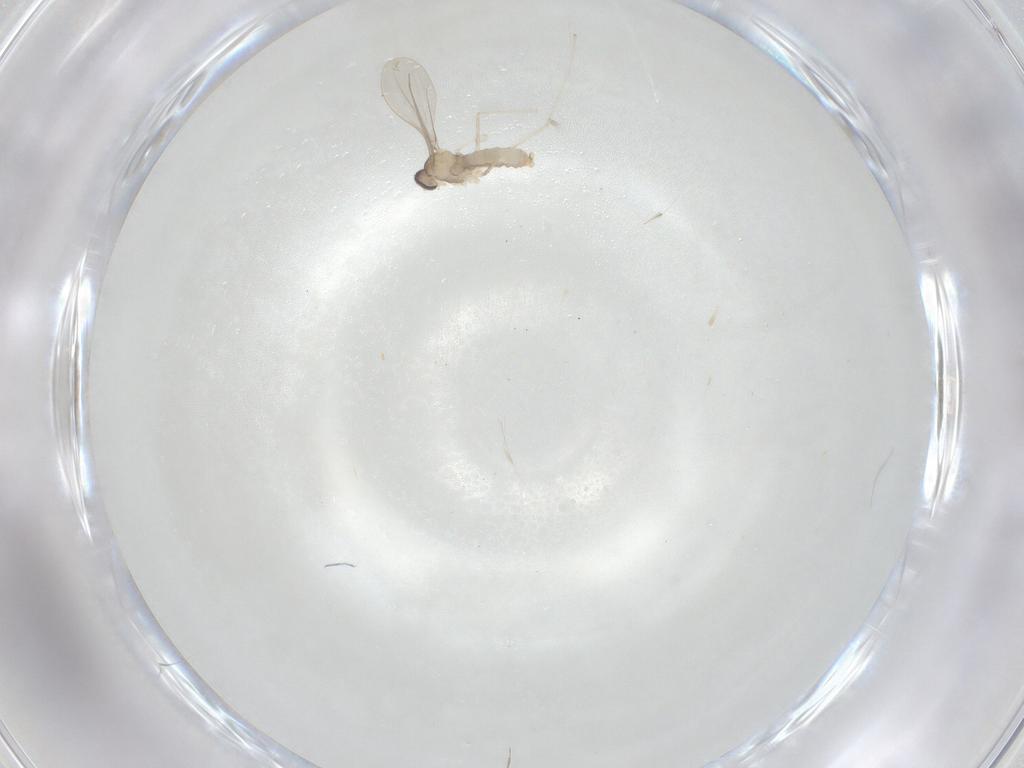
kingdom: Animalia
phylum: Arthropoda
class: Insecta
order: Diptera
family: Cecidomyiidae
